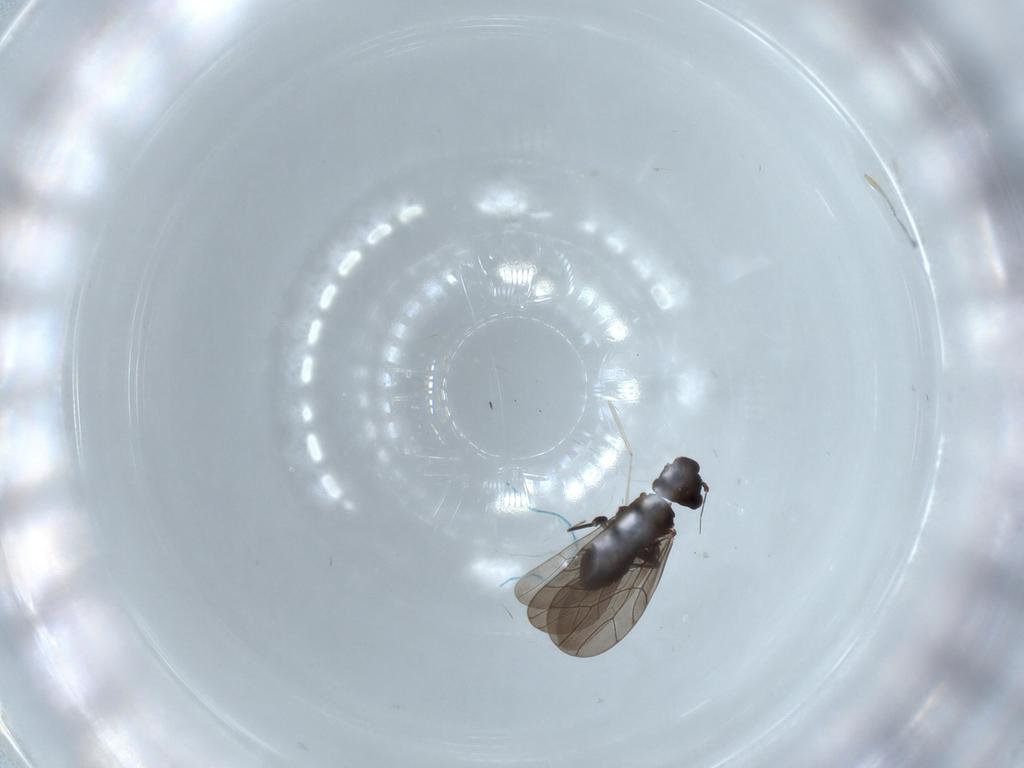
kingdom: Animalia
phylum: Arthropoda
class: Insecta
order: Psocodea
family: Lepidopsocidae
